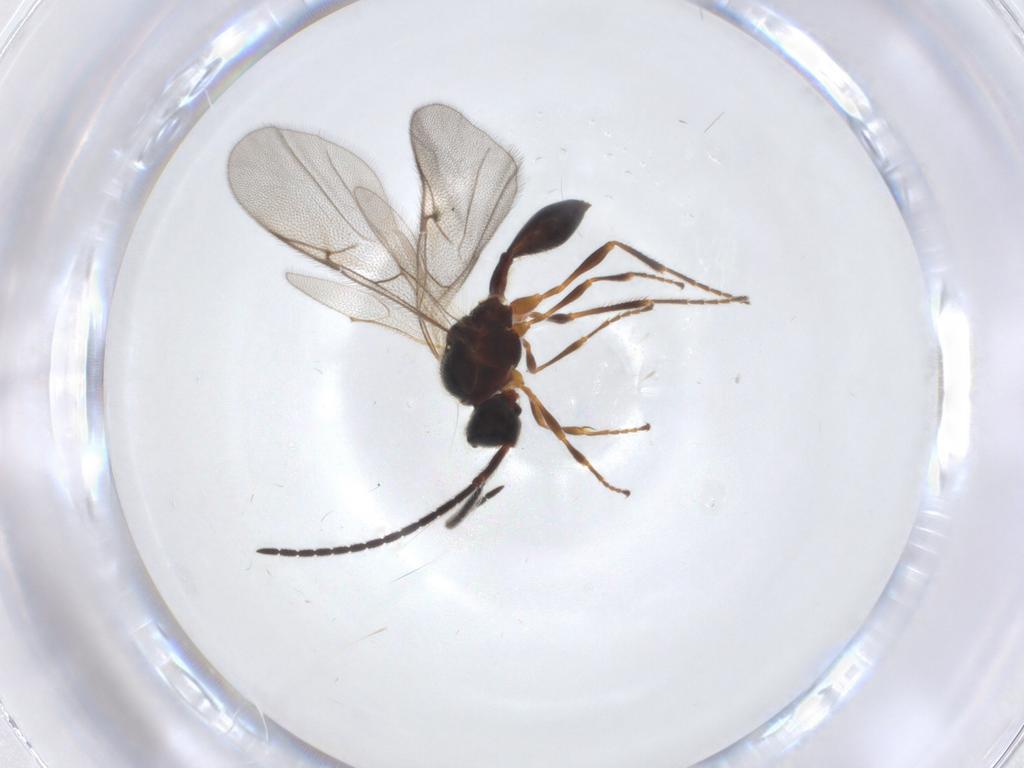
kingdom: Animalia
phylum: Arthropoda
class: Insecta
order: Hymenoptera
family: Diapriidae
